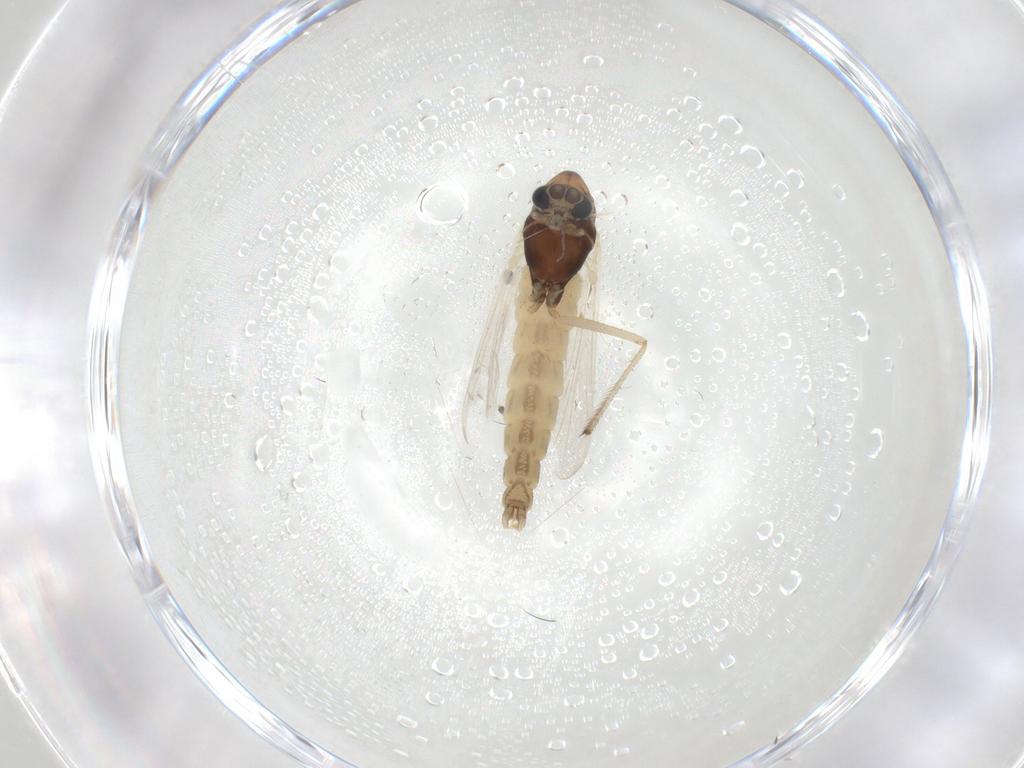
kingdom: Animalia
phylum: Arthropoda
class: Insecta
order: Diptera
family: Chironomidae
